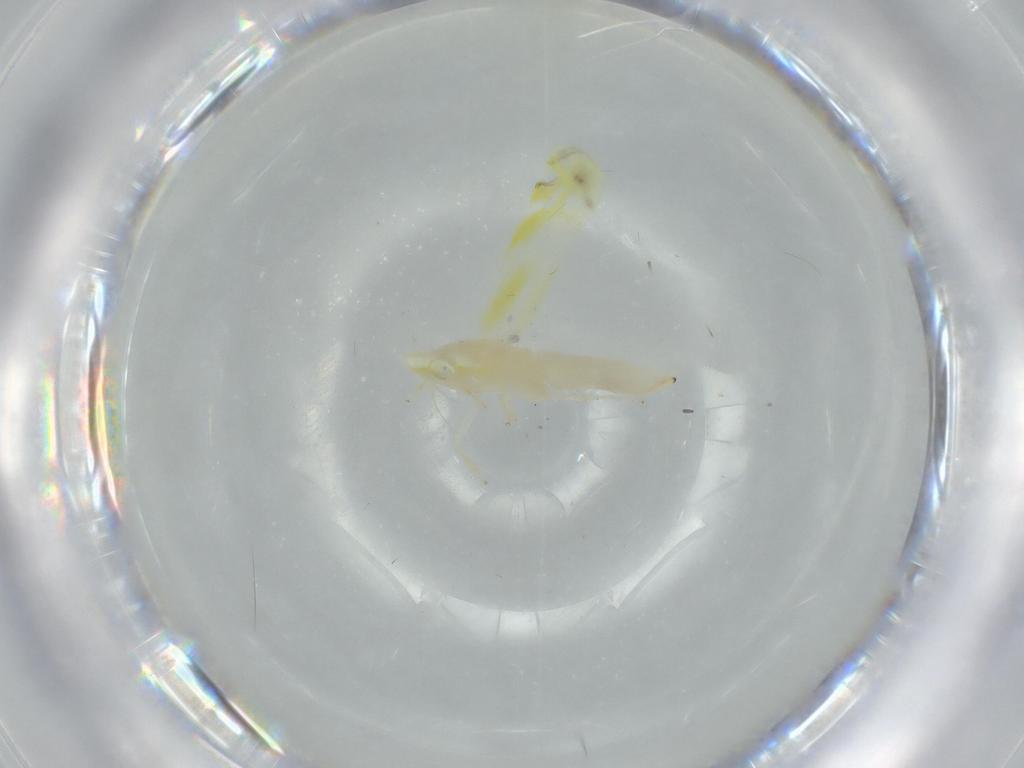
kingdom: Animalia
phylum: Arthropoda
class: Insecta
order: Hemiptera
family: Cicadellidae
